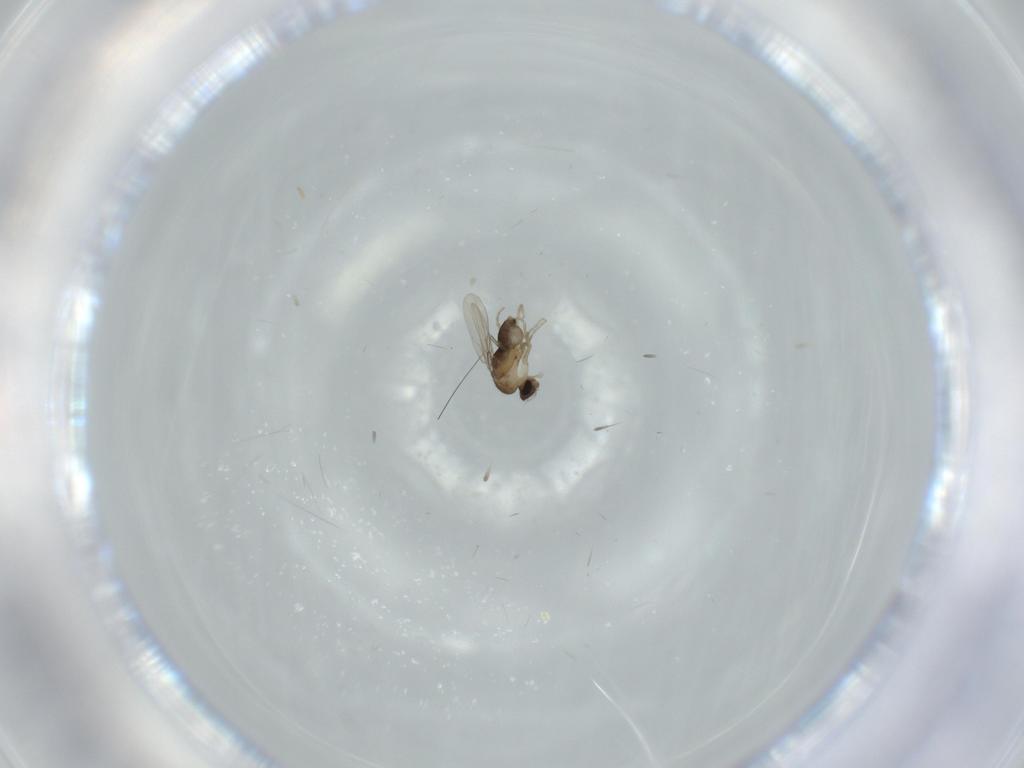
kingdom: Animalia
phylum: Arthropoda
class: Insecta
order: Diptera
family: Phoridae
